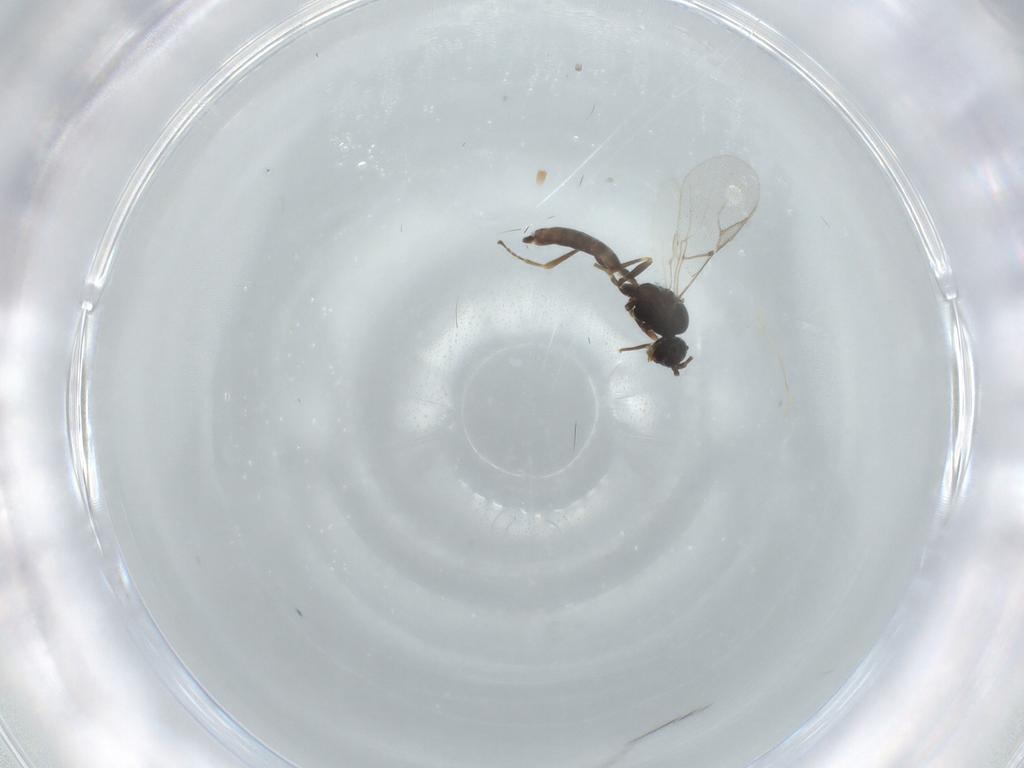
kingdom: Animalia
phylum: Arthropoda
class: Insecta
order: Hymenoptera
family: Braconidae
